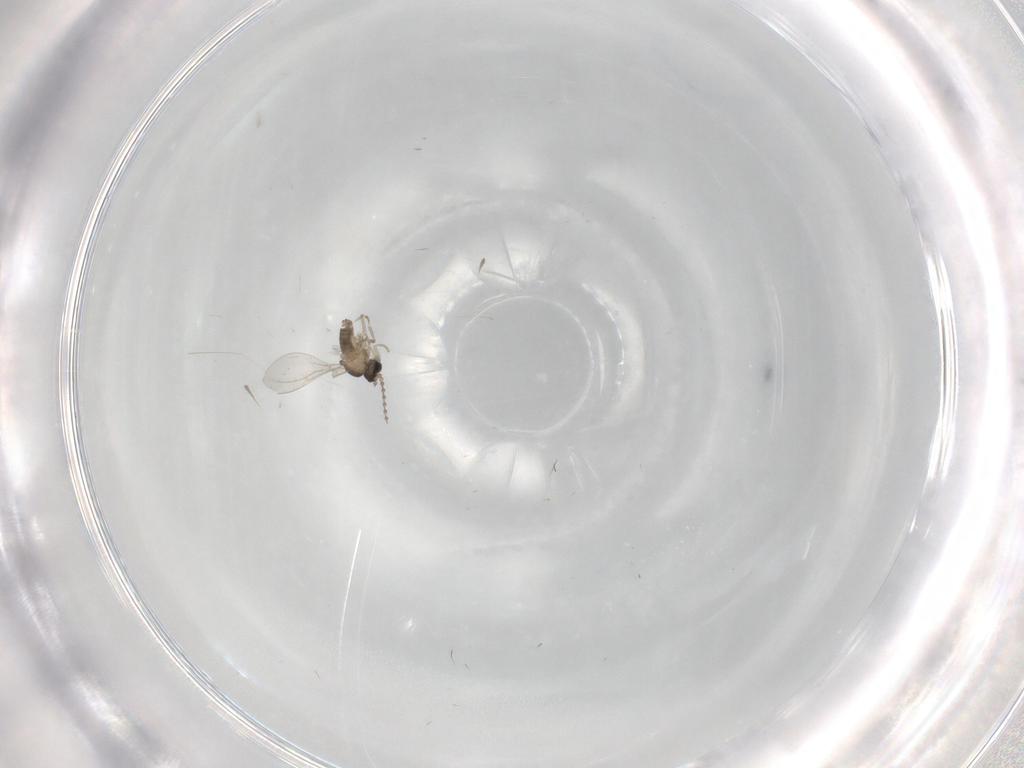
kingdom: Animalia
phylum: Arthropoda
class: Insecta
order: Diptera
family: Cecidomyiidae
